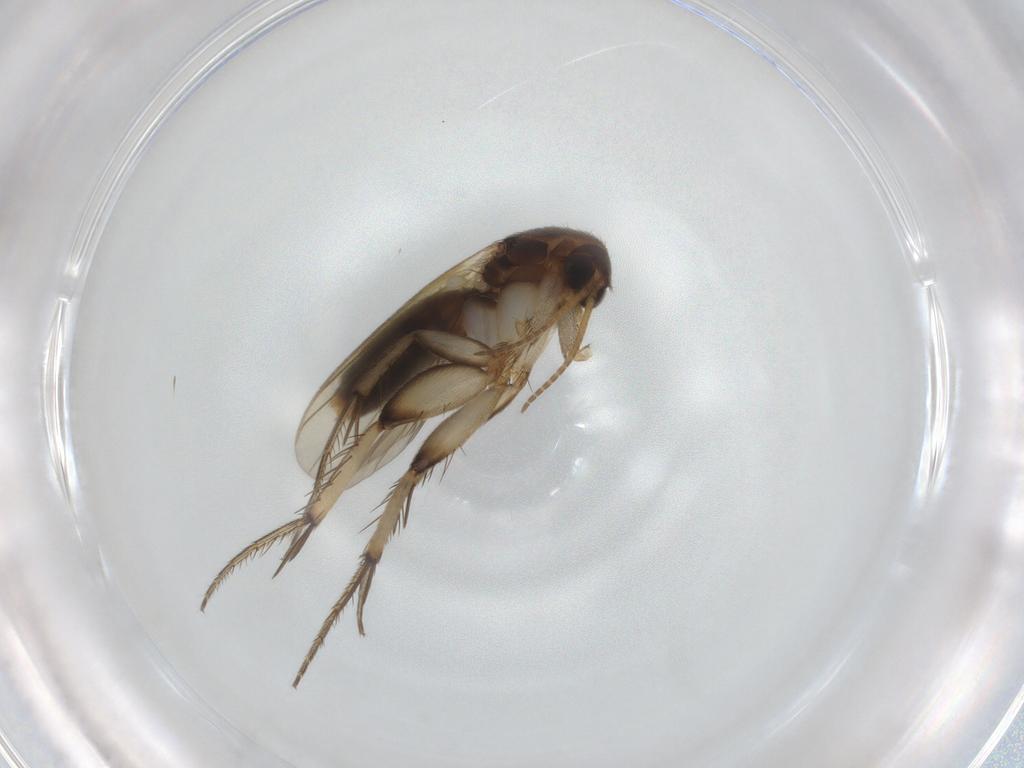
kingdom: Animalia
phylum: Arthropoda
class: Insecta
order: Diptera
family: Mycetophilidae
